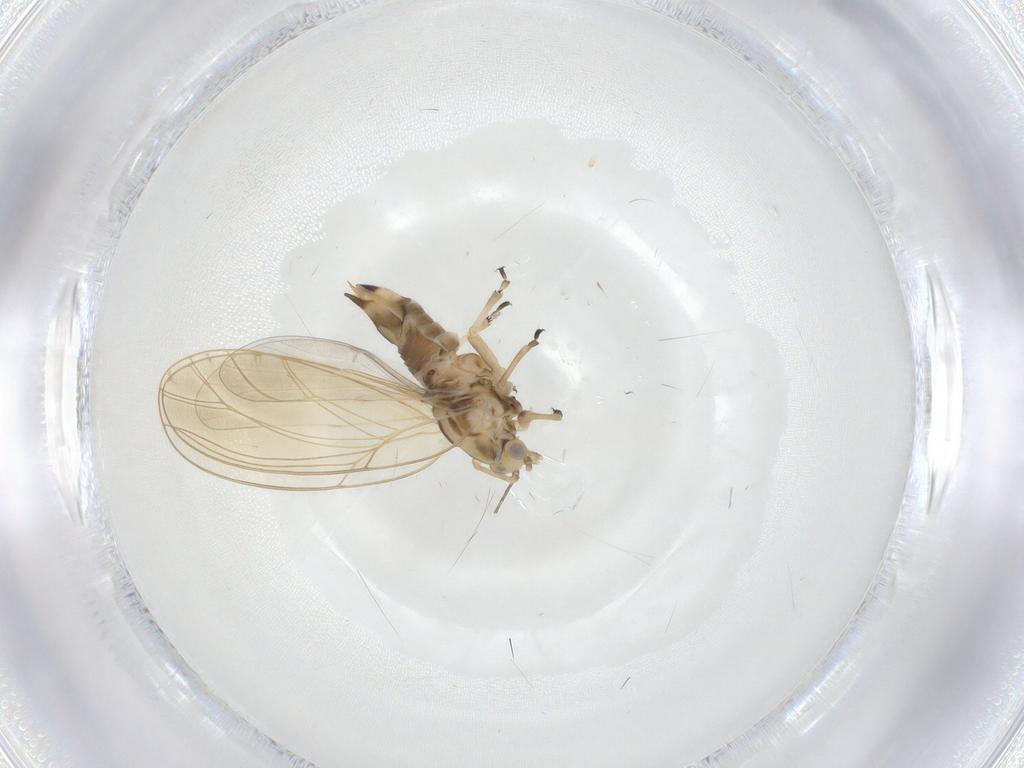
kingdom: Animalia
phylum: Arthropoda
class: Insecta
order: Hemiptera
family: Triozidae
